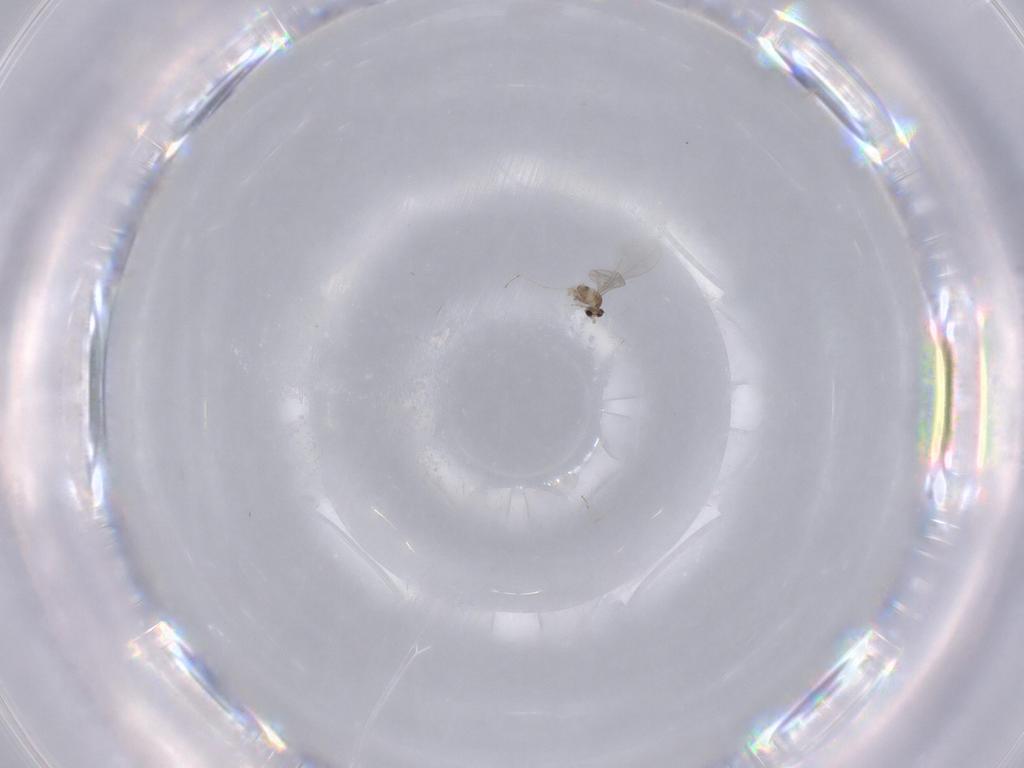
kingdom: Animalia
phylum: Arthropoda
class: Insecta
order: Diptera
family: Cecidomyiidae
